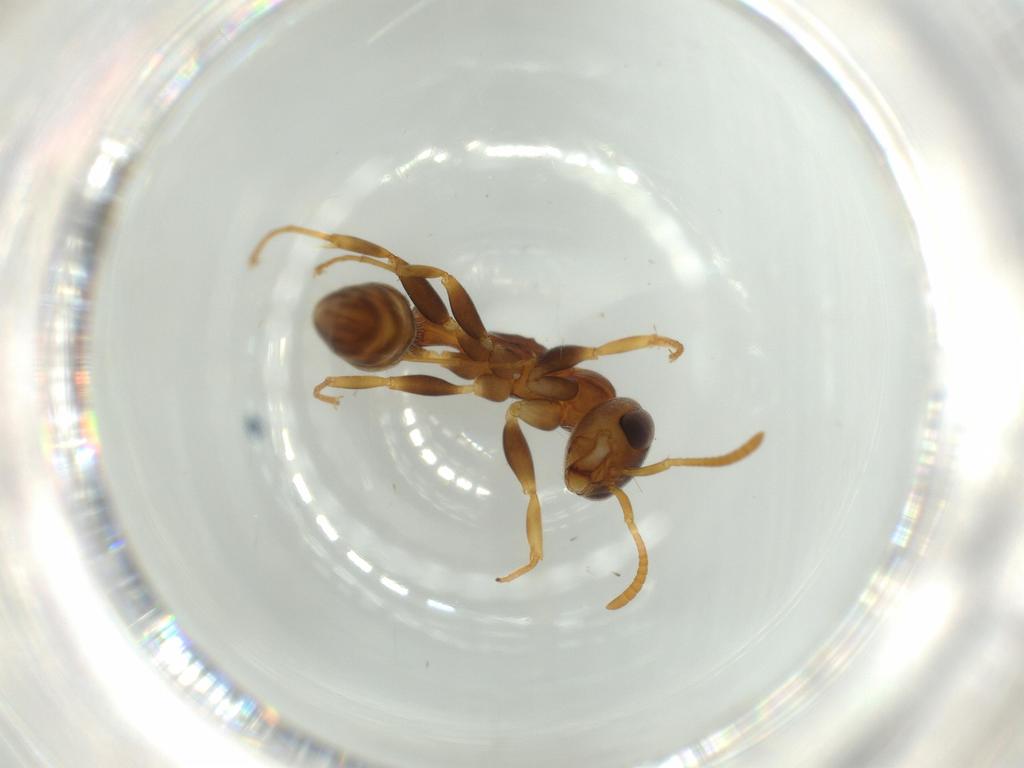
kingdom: Animalia
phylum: Arthropoda
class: Insecta
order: Hymenoptera
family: Formicidae
